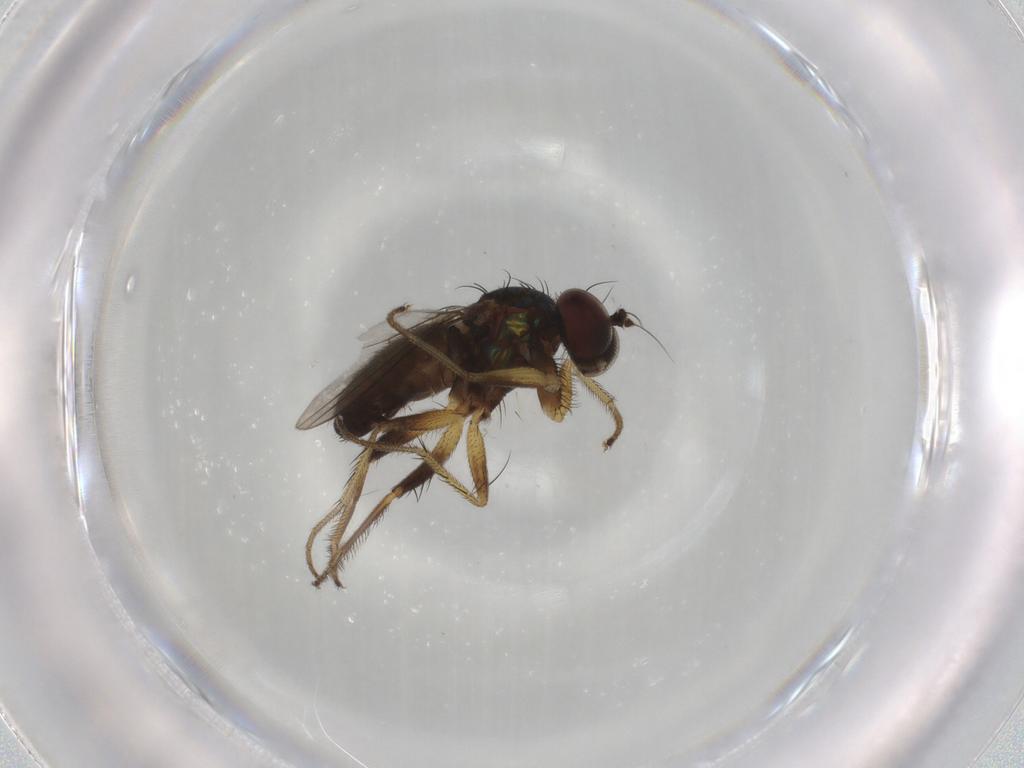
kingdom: Animalia
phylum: Arthropoda
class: Insecta
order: Diptera
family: Dolichopodidae
